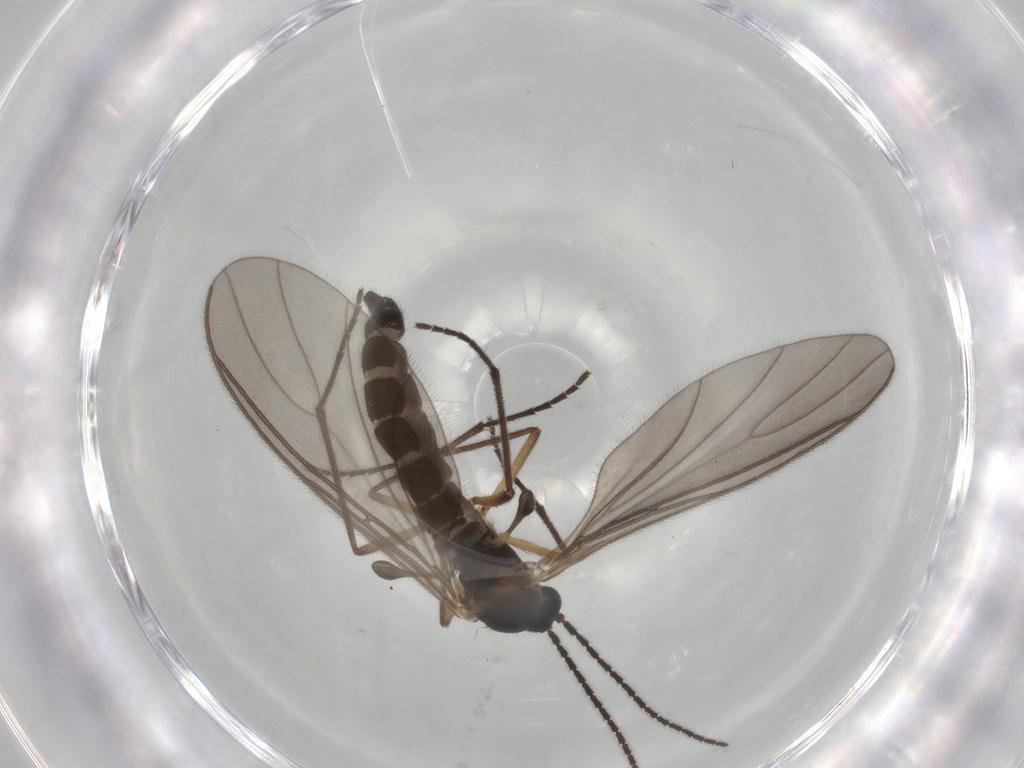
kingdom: Animalia
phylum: Arthropoda
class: Insecta
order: Diptera
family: Sciaridae
